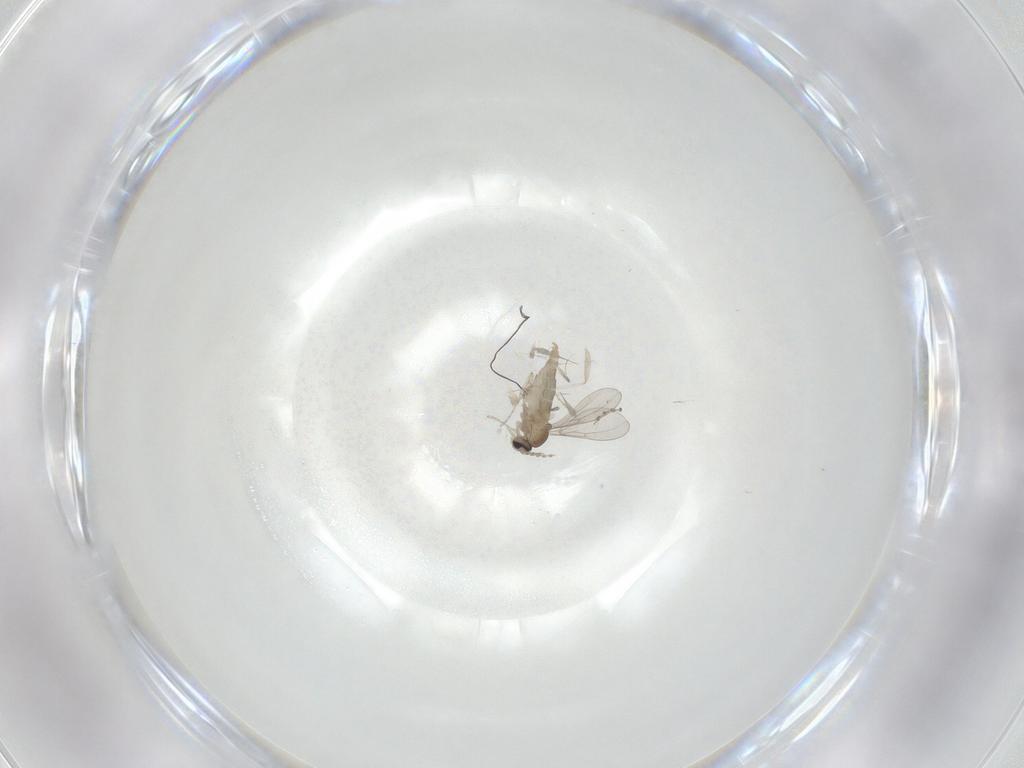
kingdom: Animalia
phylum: Arthropoda
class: Insecta
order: Diptera
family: Cecidomyiidae
